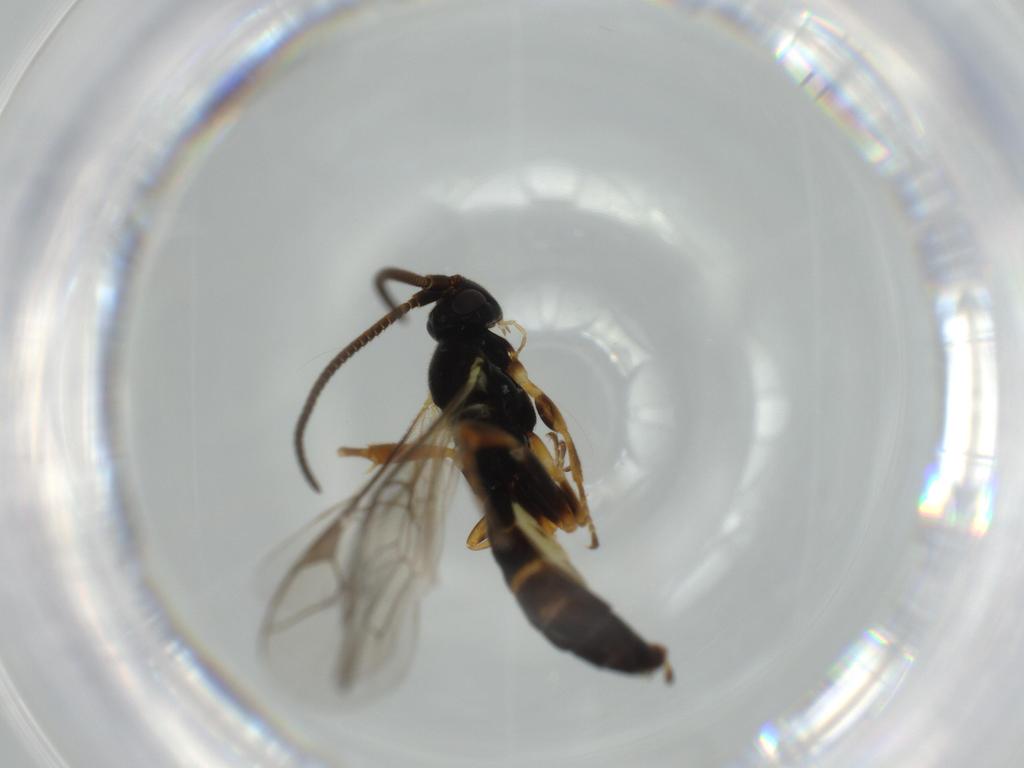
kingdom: Animalia
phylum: Arthropoda
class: Insecta
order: Hymenoptera
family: Ichneumonidae
